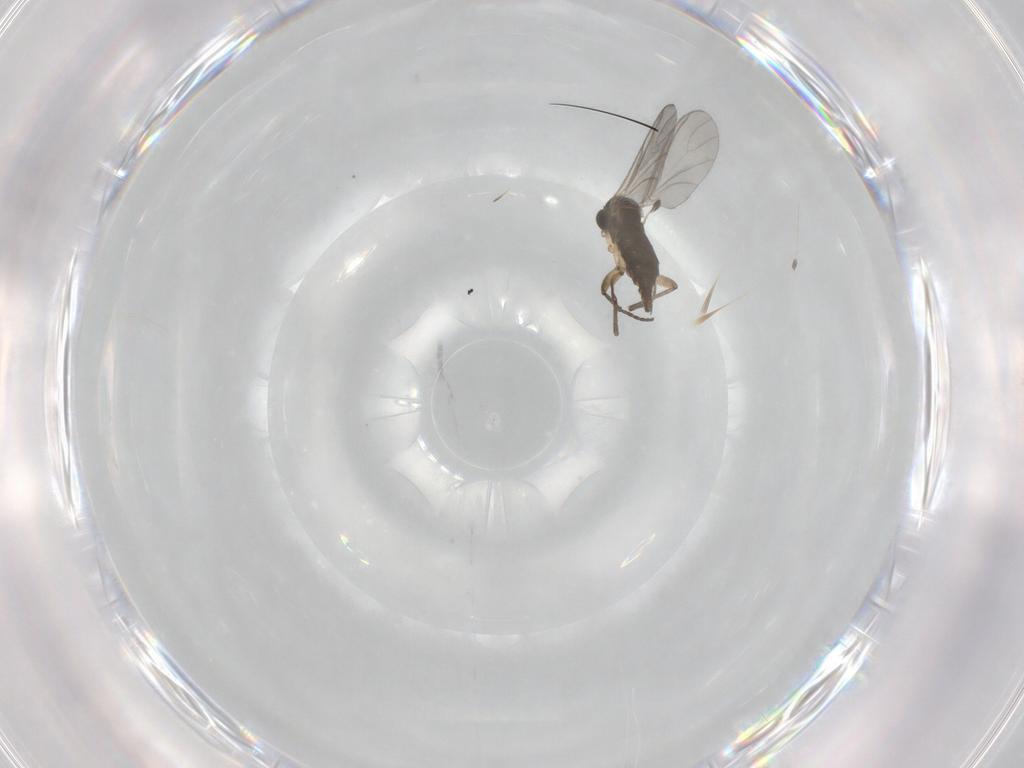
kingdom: Animalia
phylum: Arthropoda
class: Insecta
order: Diptera
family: Sciaridae
